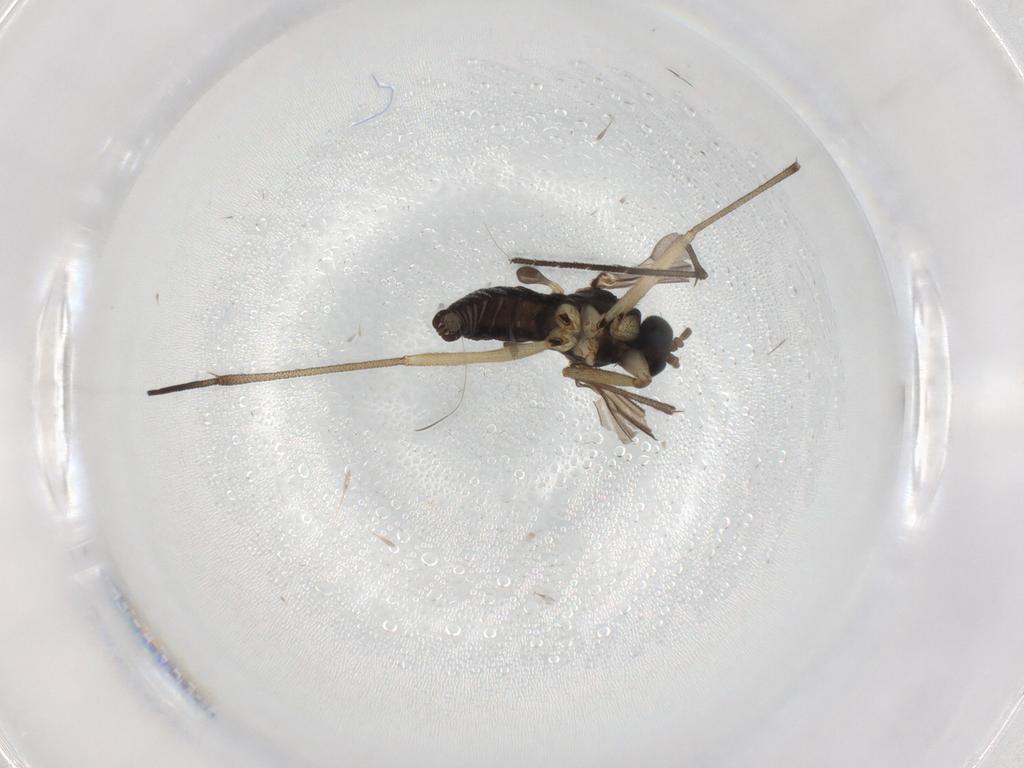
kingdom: Animalia
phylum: Arthropoda
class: Insecta
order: Diptera
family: Sciaridae
